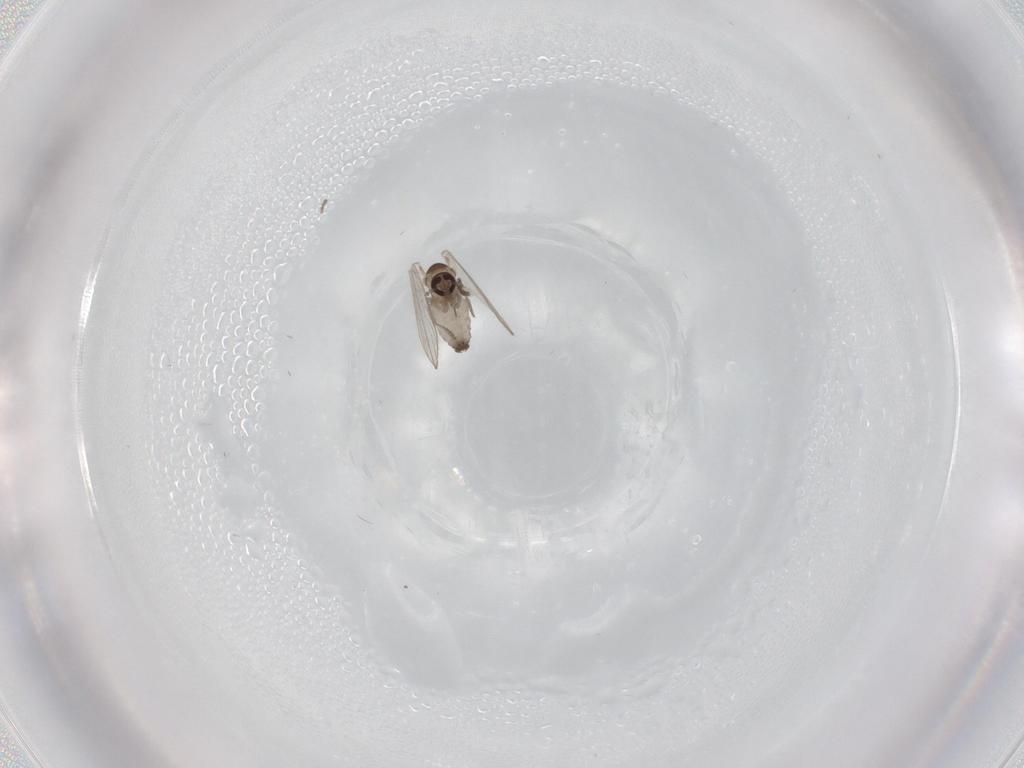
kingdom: Animalia
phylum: Arthropoda
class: Insecta
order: Diptera
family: Psychodidae
